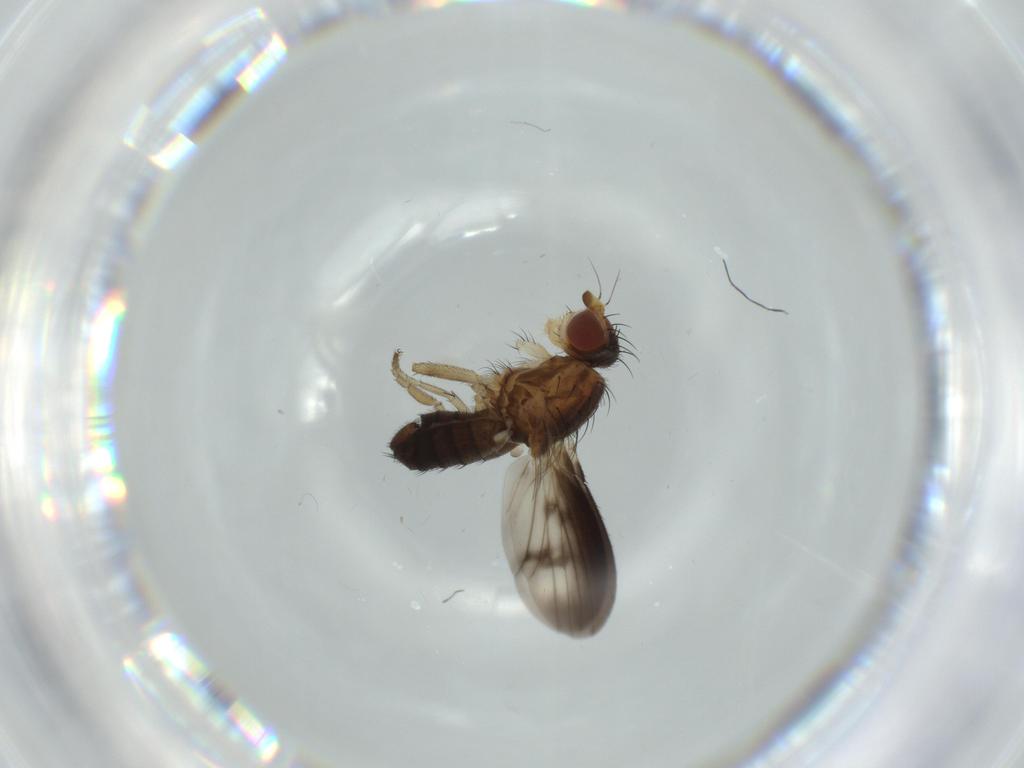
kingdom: Animalia
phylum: Arthropoda
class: Insecta
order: Diptera
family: Heleomyzidae
